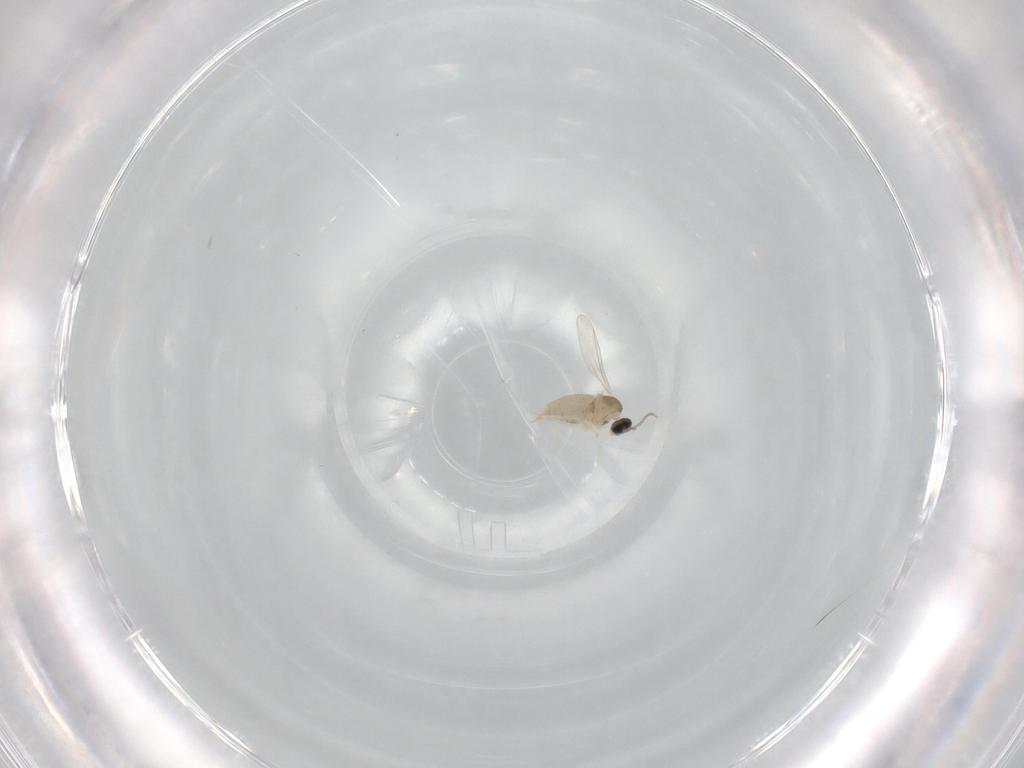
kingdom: Animalia
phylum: Arthropoda
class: Insecta
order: Diptera
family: Cecidomyiidae
